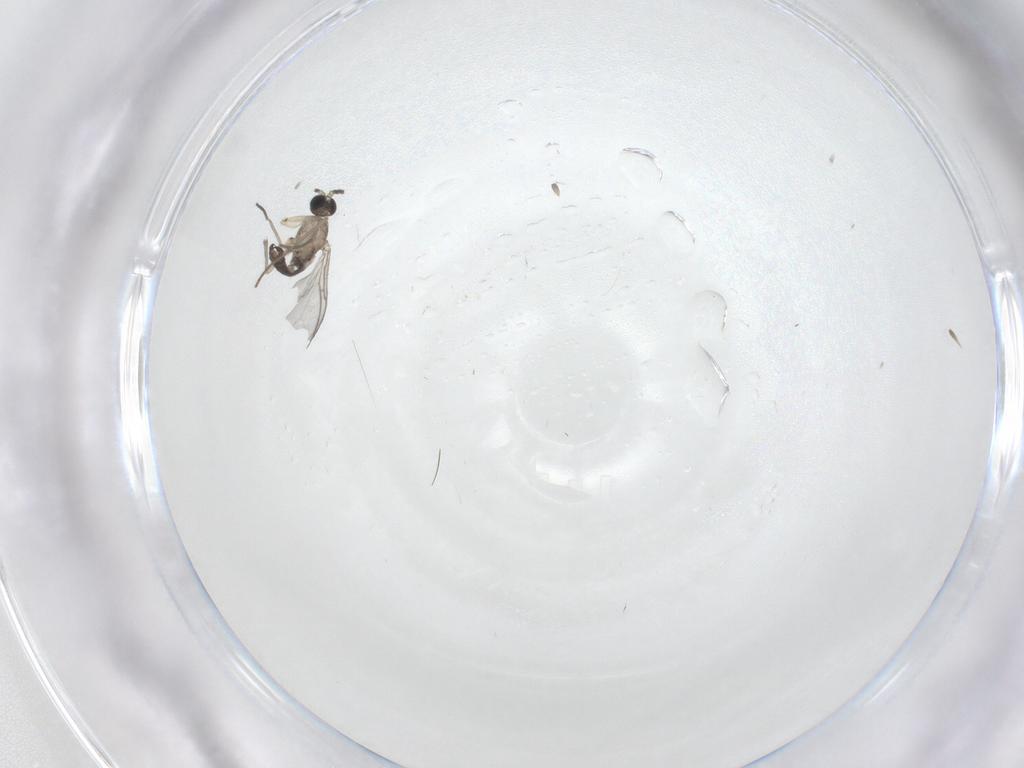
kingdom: Animalia
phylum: Arthropoda
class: Insecta
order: Diptera
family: Sciaridae
